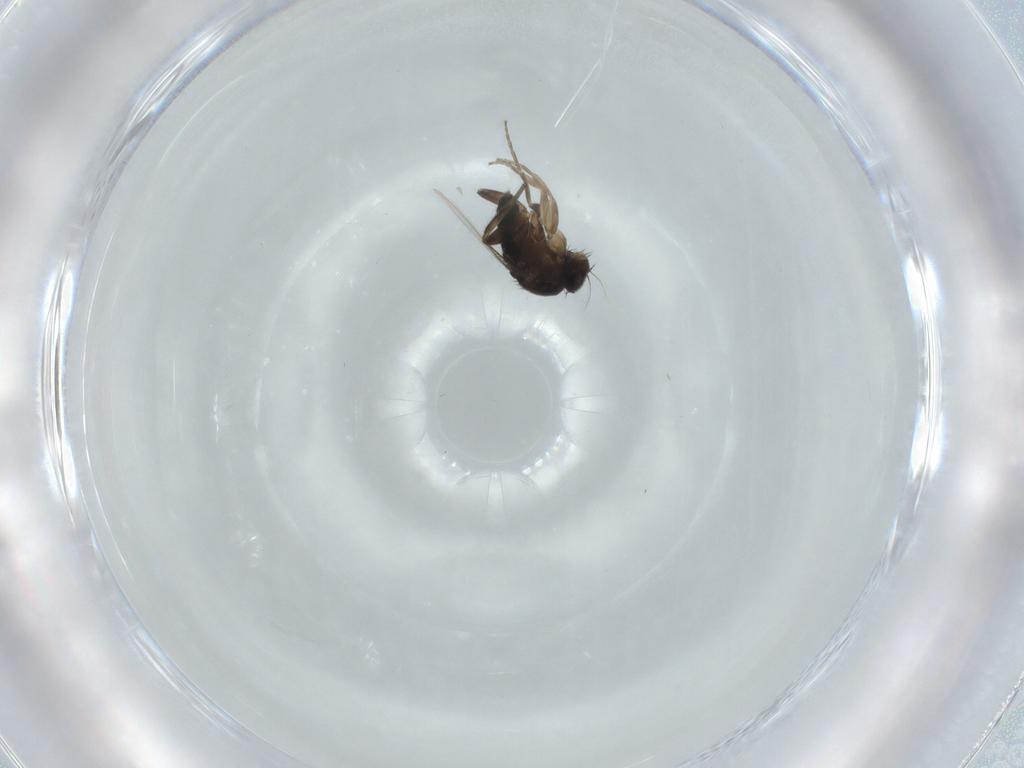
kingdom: Animalia
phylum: Arthropoda
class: Insecta
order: Diptera
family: Phoridae
